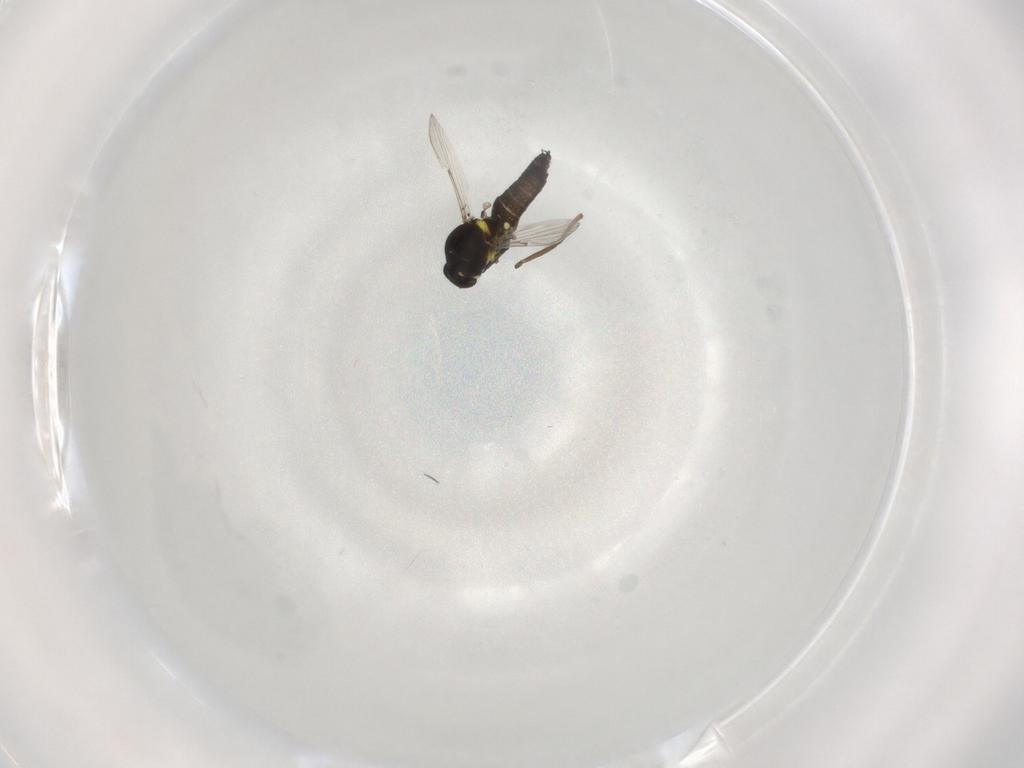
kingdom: Animalia
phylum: Arthropoda
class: Insecta
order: Diptera
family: Ceratopogonidae
